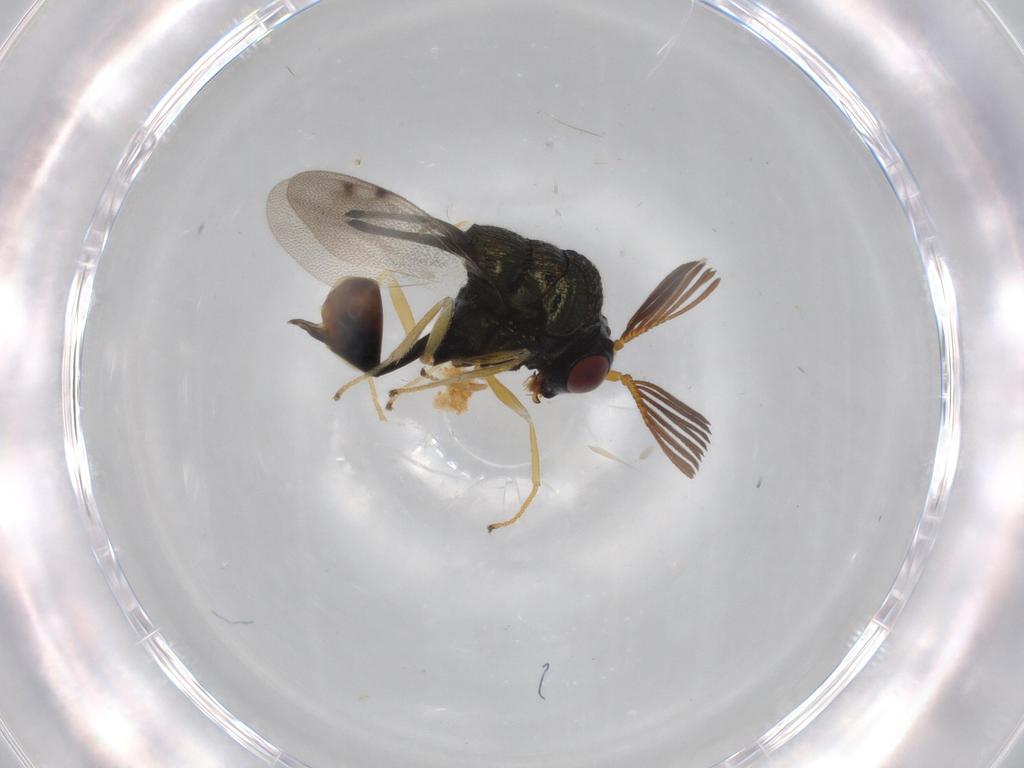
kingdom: Animalia
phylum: Arthropoda
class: Insecta
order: Hymenoptera
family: Eucharitidae
